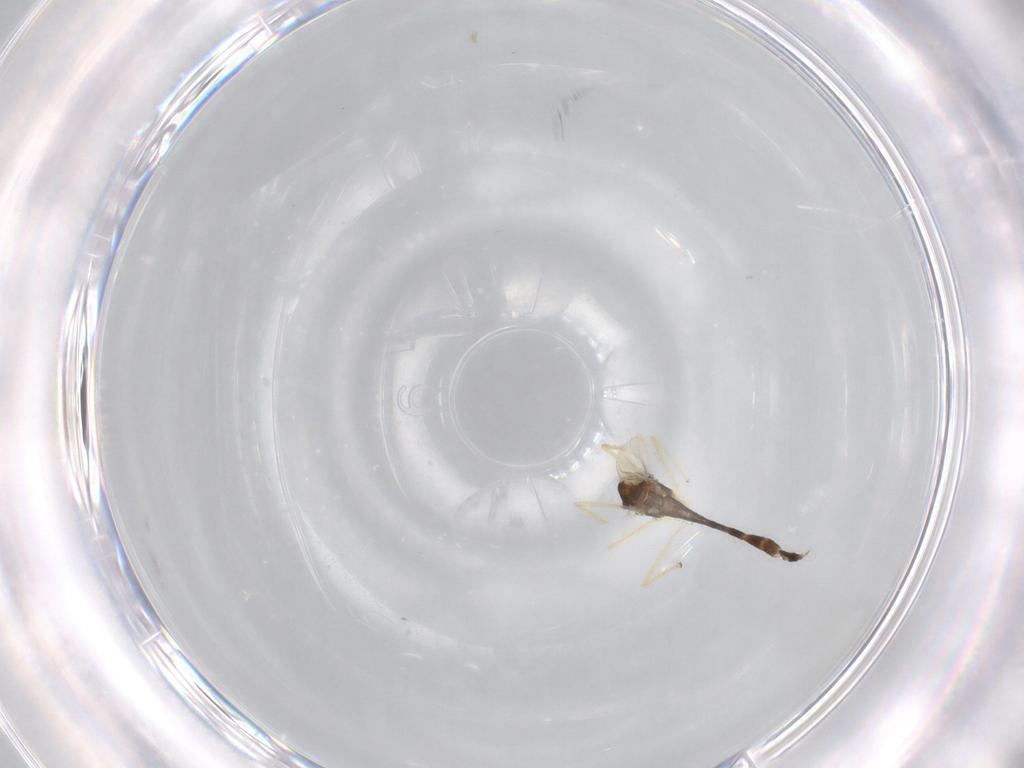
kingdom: Animalia
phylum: Arthropoda
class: Insecta
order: Diptera
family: Chironomidae
